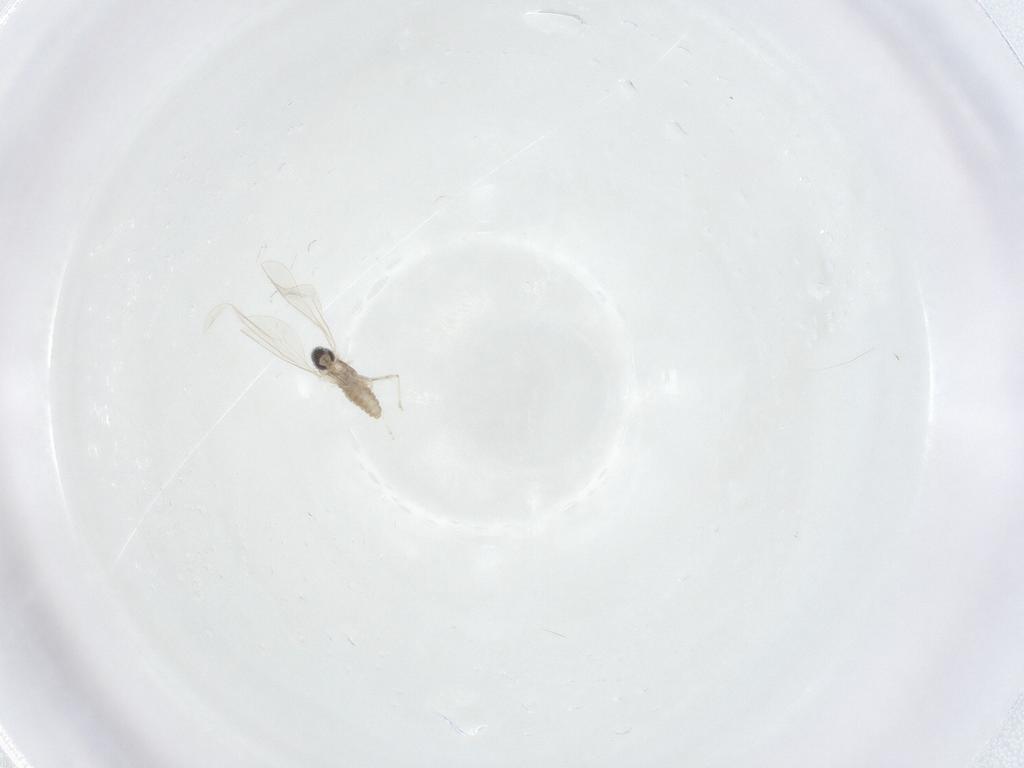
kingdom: Animalia
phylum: Arthropoda
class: Insecta
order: Diptera
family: Cecidomyiidae
